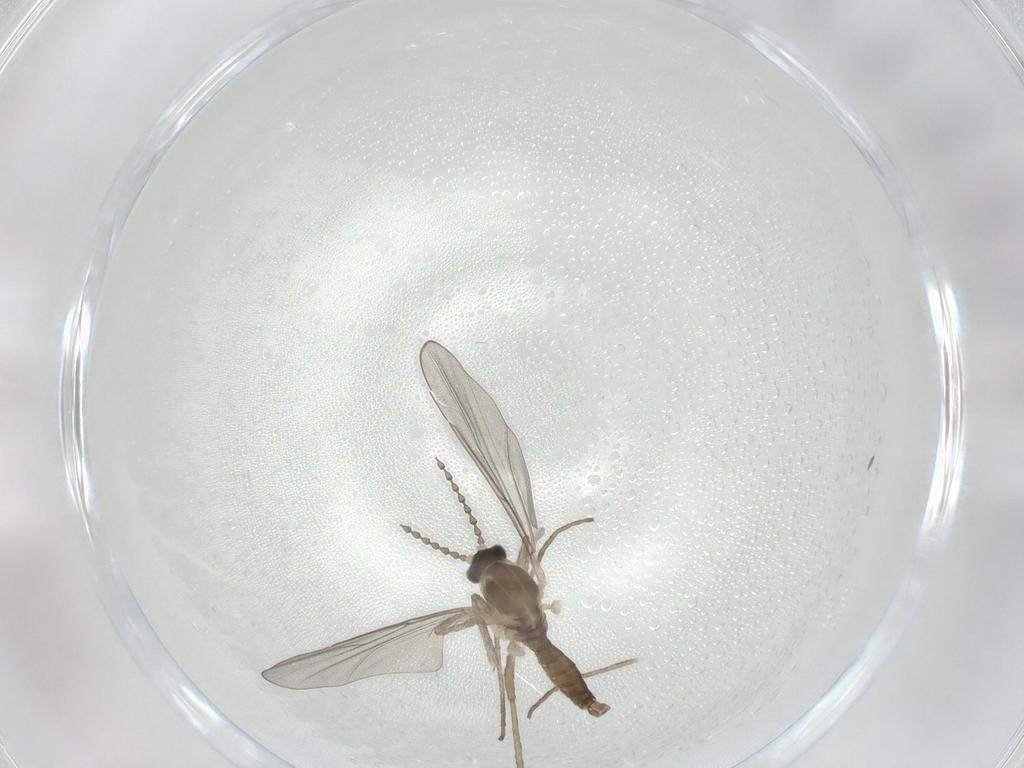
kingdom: Animalia
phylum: Arthropoda
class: Insecta
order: Diptera
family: Cecidomyiidae
